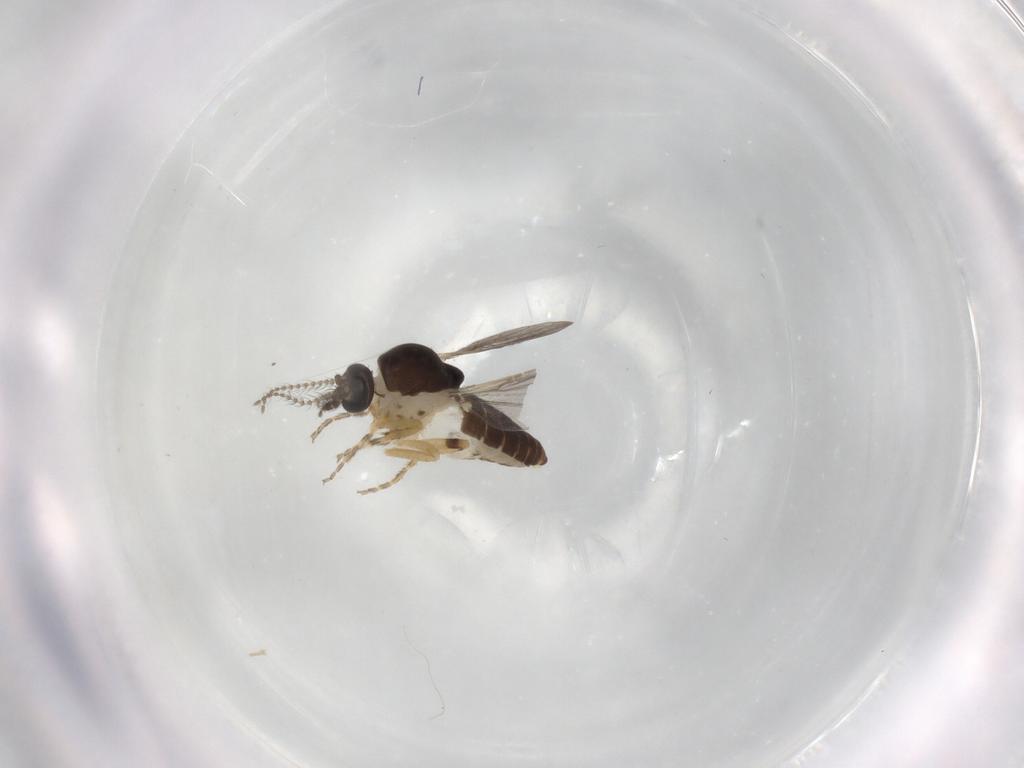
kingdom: Animalia
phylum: Arthropoda
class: Insecta
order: Diptera
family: Ceratopogonidae
